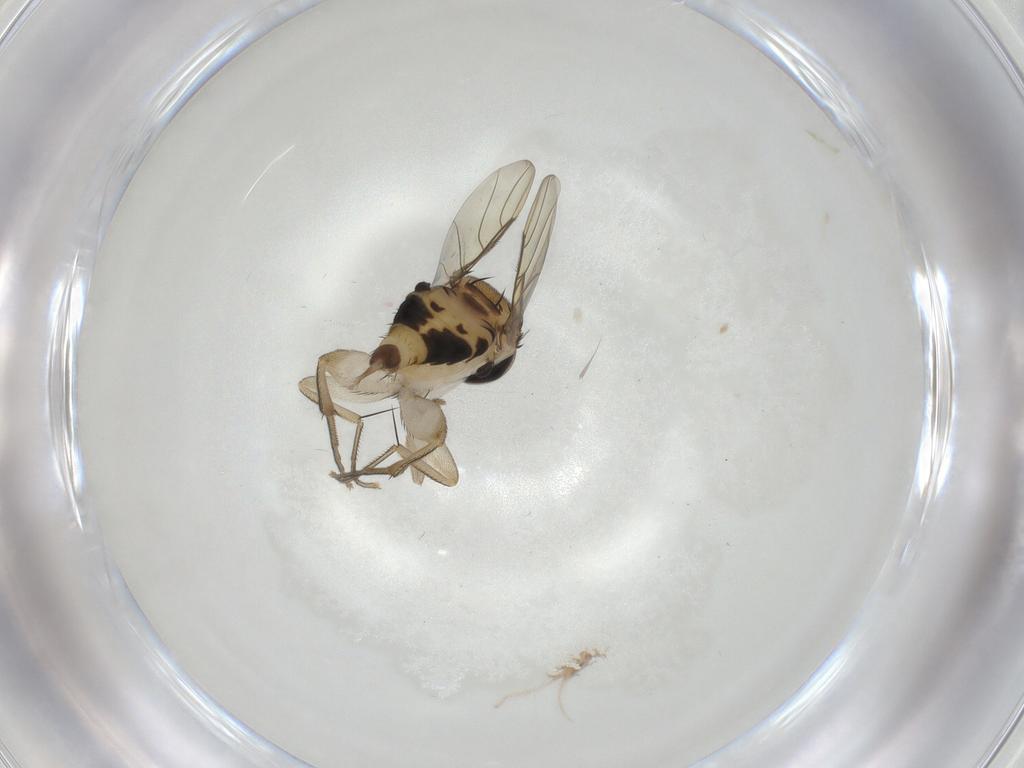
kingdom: Animalia
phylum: Arthropoda
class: Insecta
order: Diptera
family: Phoridae
